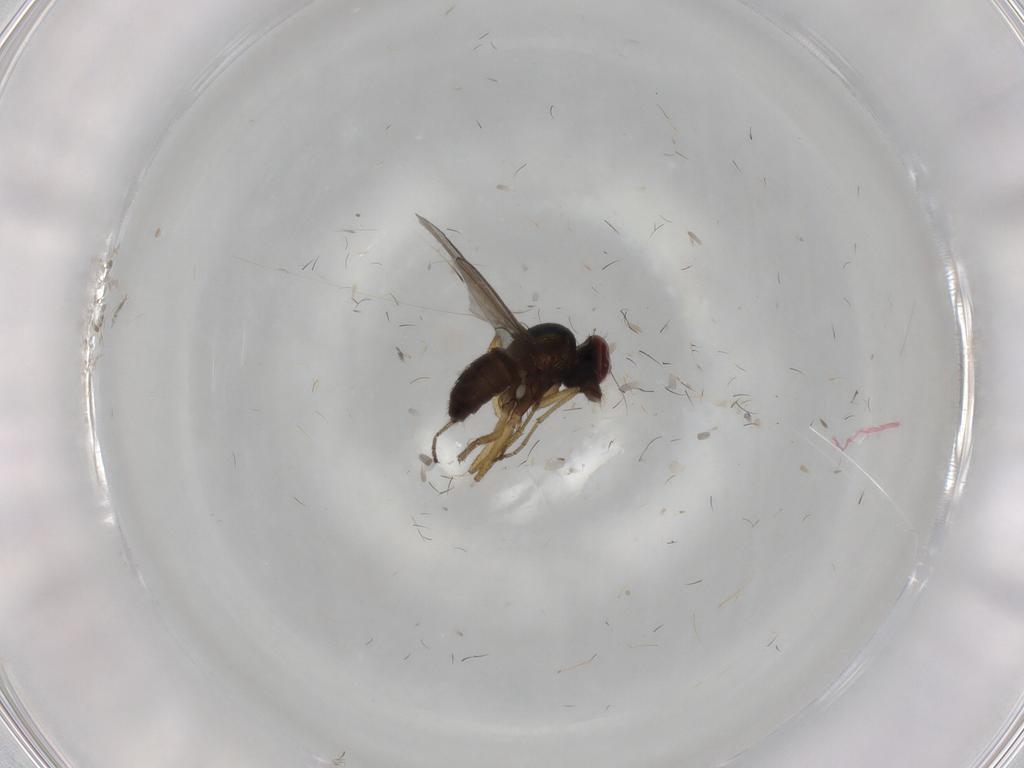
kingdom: Animalia
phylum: Arthropoda
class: Insecta
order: Diptera
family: Dolichopodidae
